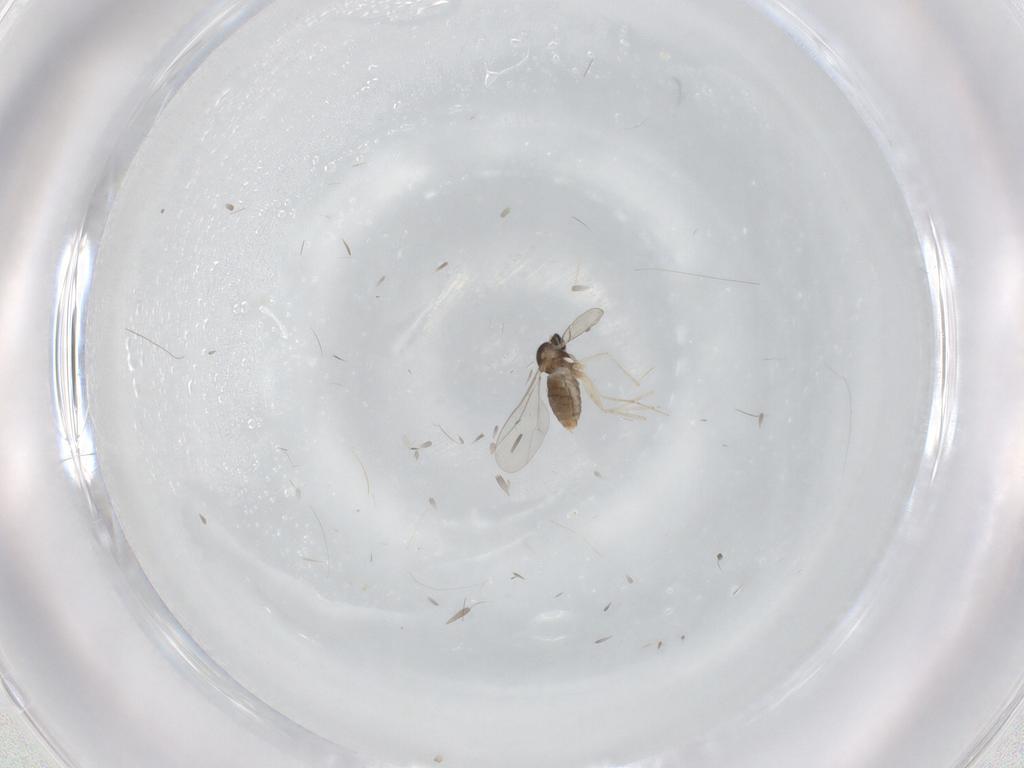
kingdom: Animalia
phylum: Arthropoda
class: Insecta
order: Diptera
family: Cecidomyiidae
